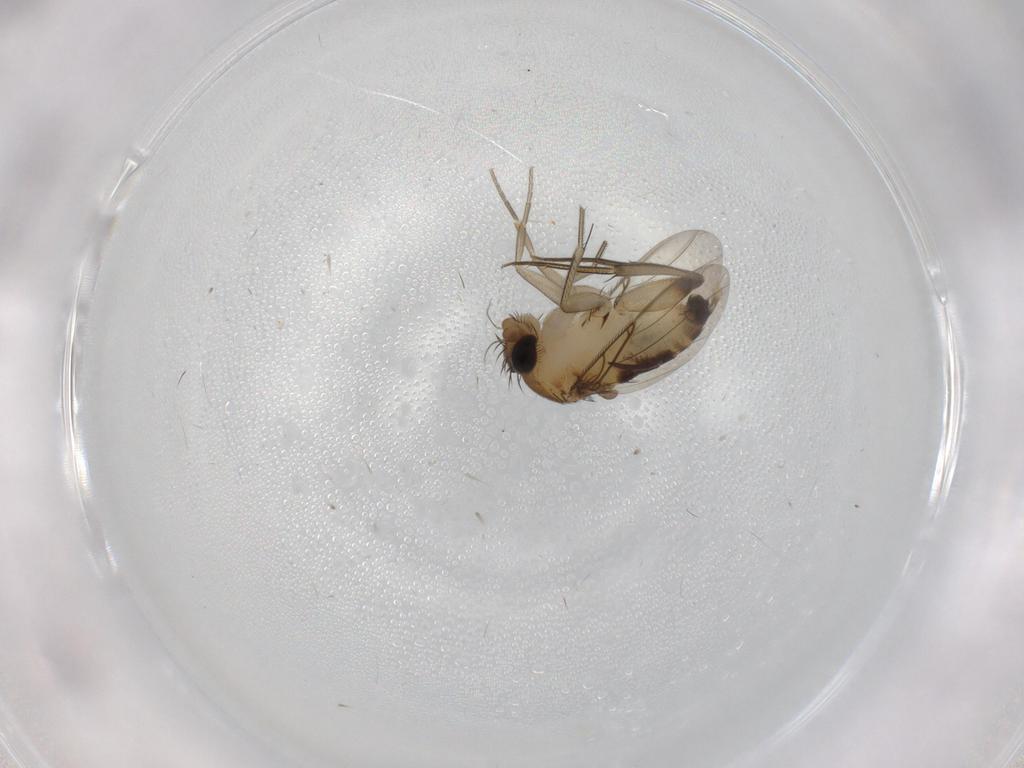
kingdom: Animalia
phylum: Arthropoda
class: Insecta
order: Diptera
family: Phoridae
